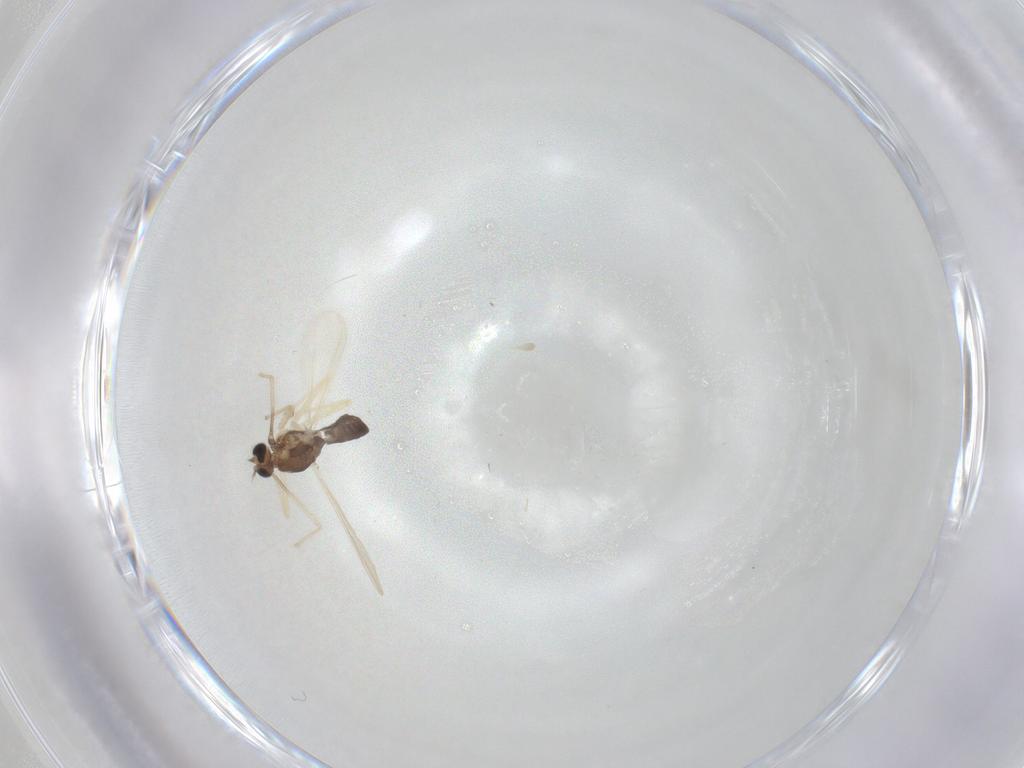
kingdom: Animalia
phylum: Arthropoda
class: Insecta
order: Diptera
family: Chironomidae
